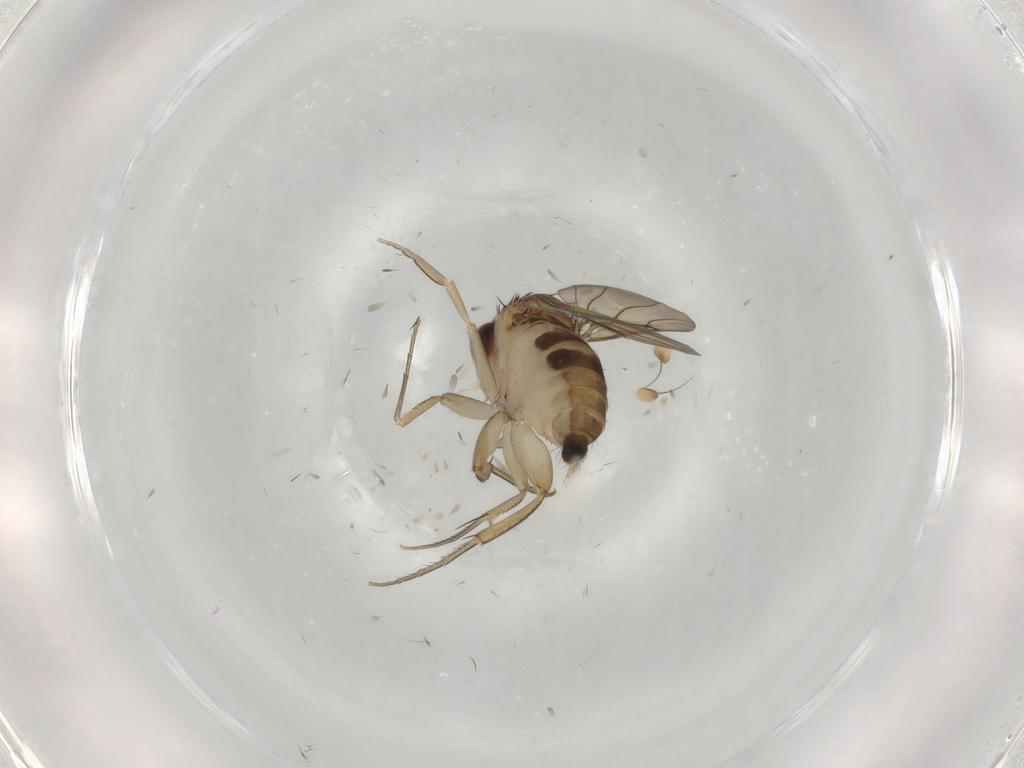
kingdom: Animalia
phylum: Arthropoda
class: Insecta
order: Diptera
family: Phoridae
